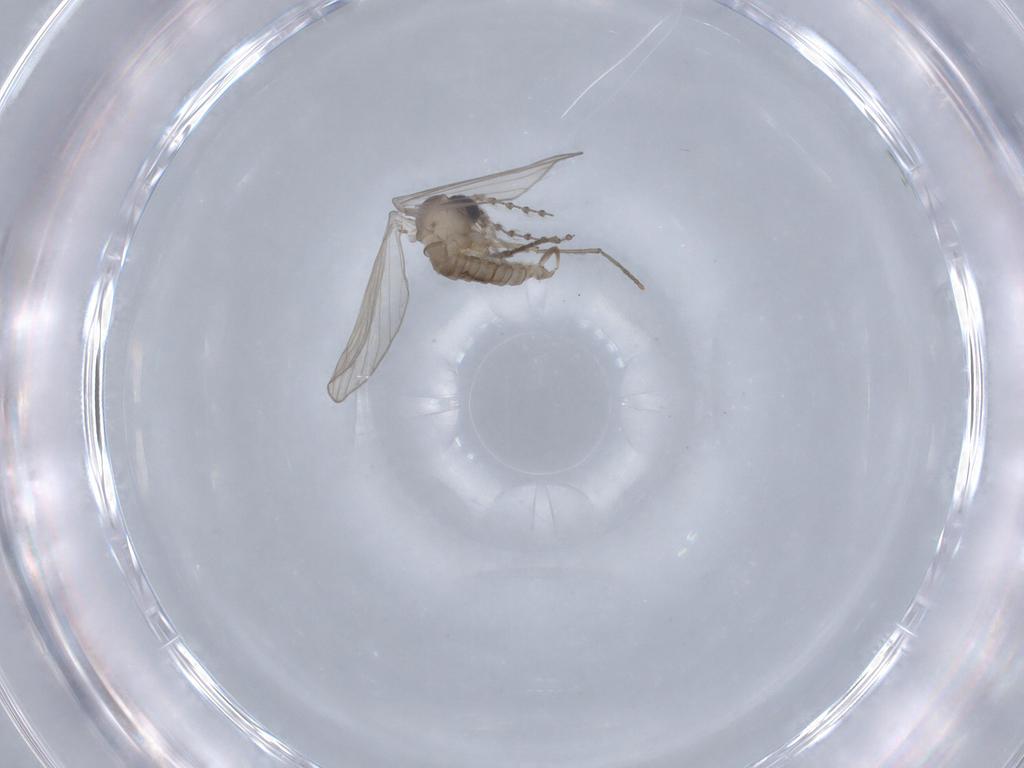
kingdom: Animalia
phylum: Arthropoda
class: Insecta
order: Diptera
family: Psychodidae
